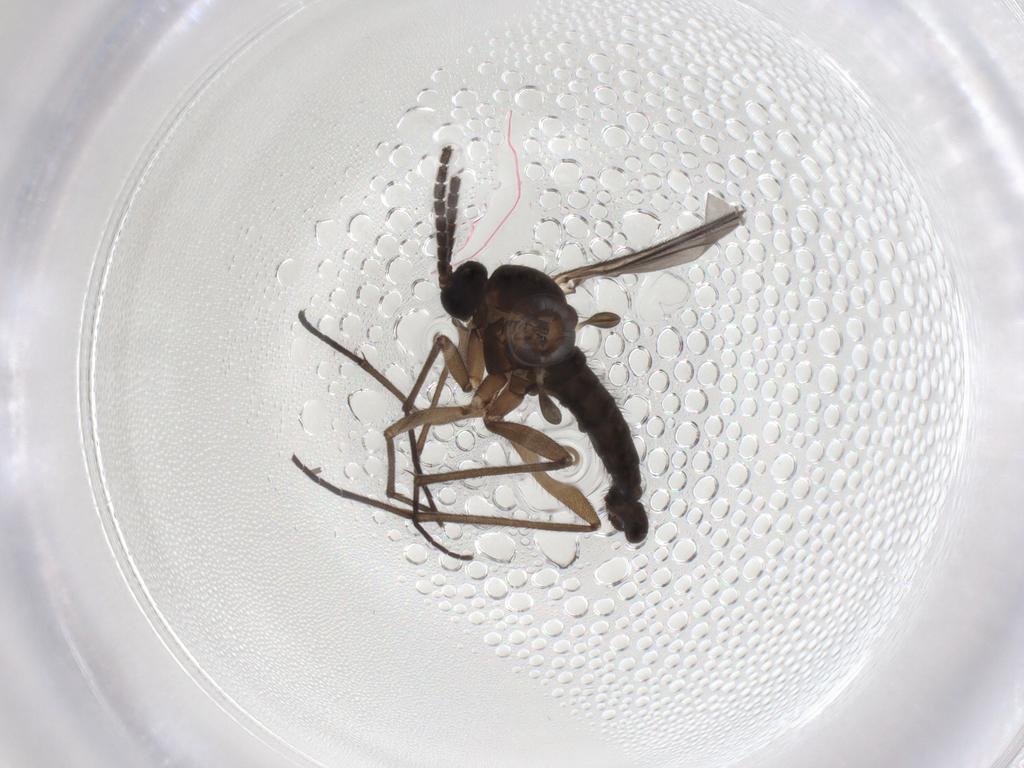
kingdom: Animalia
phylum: Arthropoda
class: Insecta
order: Diptera
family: Sciaridae
